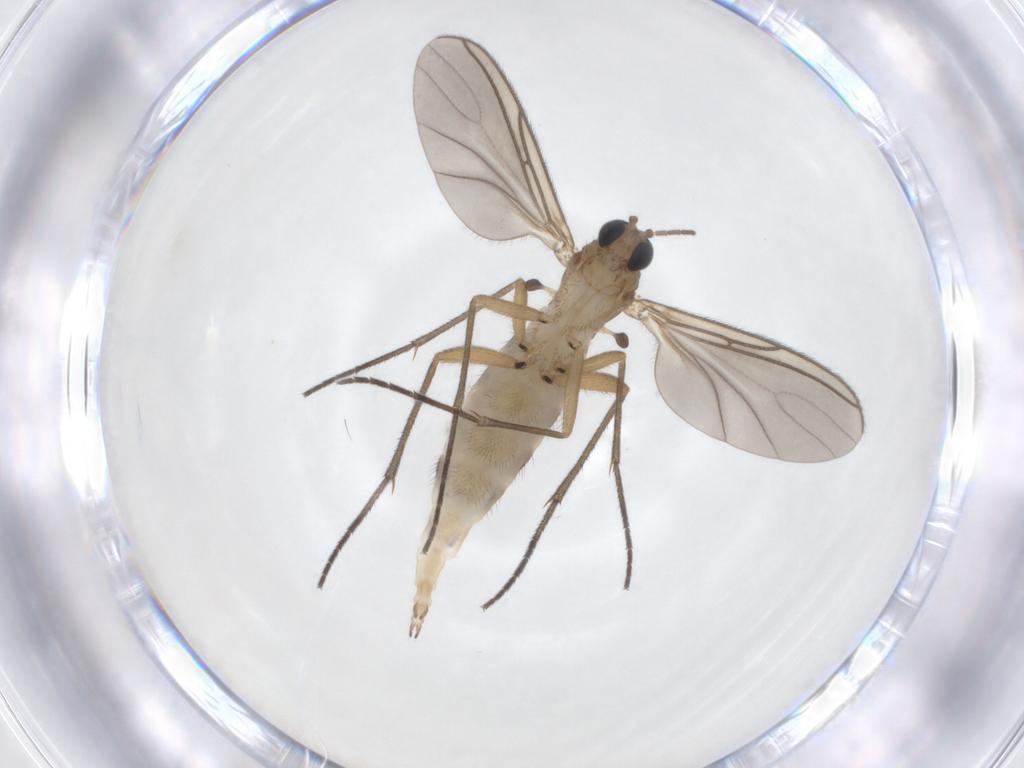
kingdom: Animalia
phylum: Arthropoda
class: Insecta
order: Diptera
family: Sciaridae
